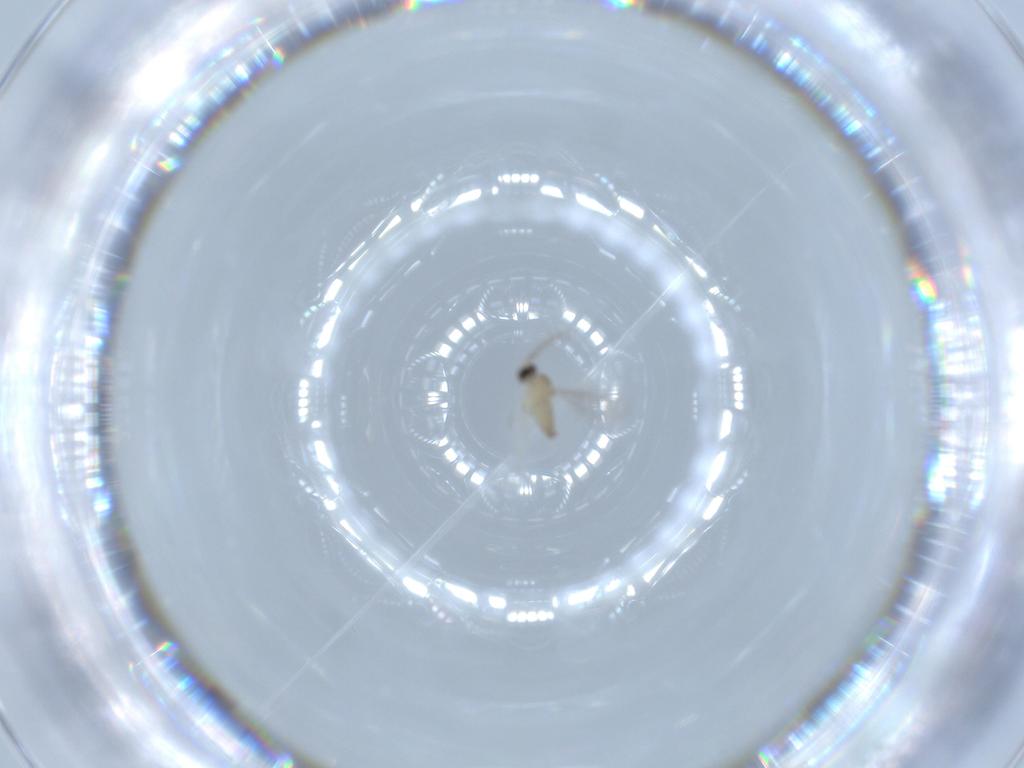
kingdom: Animalia
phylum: Arthropoda
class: Insecta
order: Diptera
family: Cecidomyiidae
